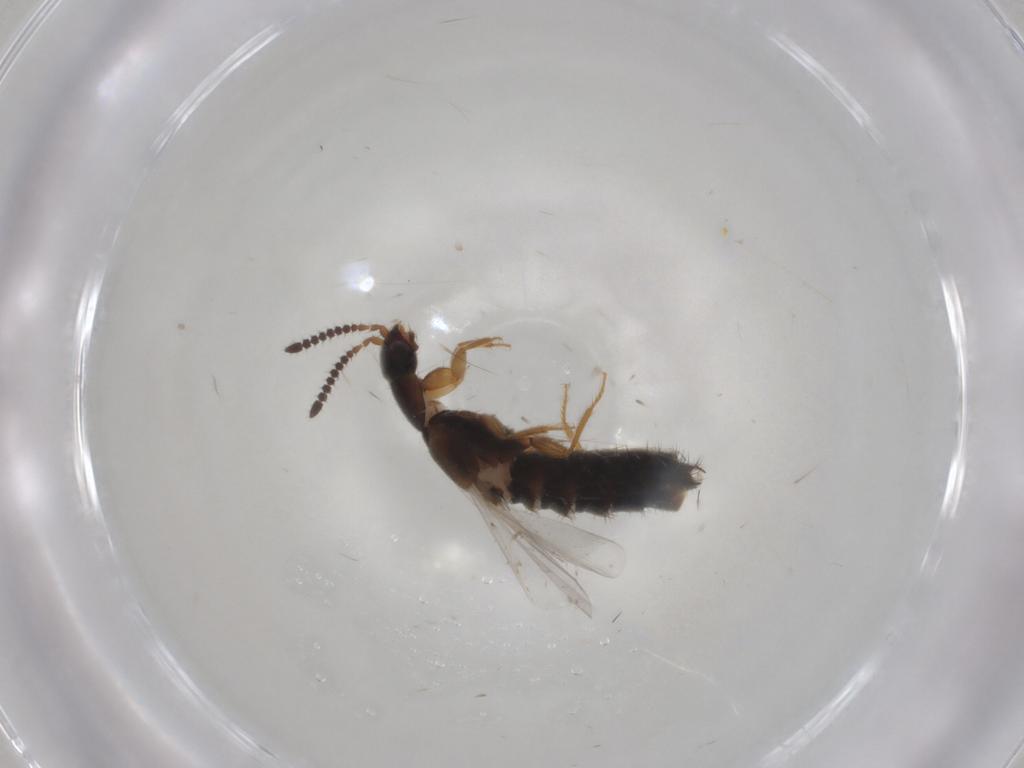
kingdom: Animalia
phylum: Arthropoda
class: Insecta
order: Coleoptera
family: Staphylinidae
